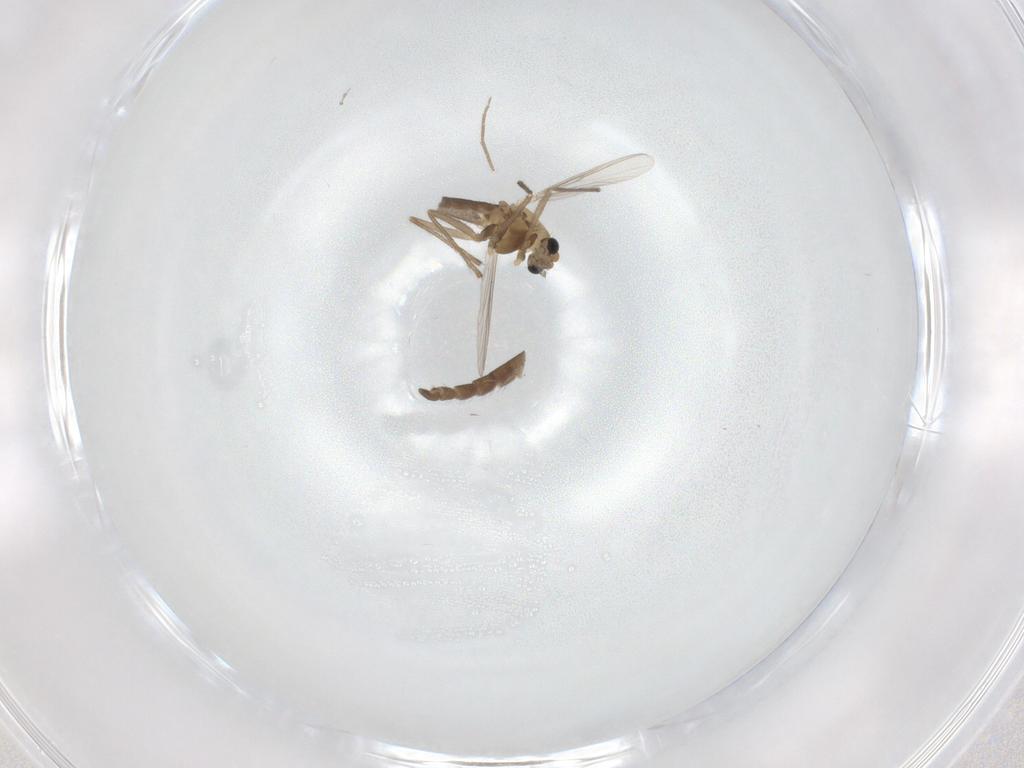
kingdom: Animalia
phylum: Arthropoda
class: Insecta
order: Diptera
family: Chironomidae
